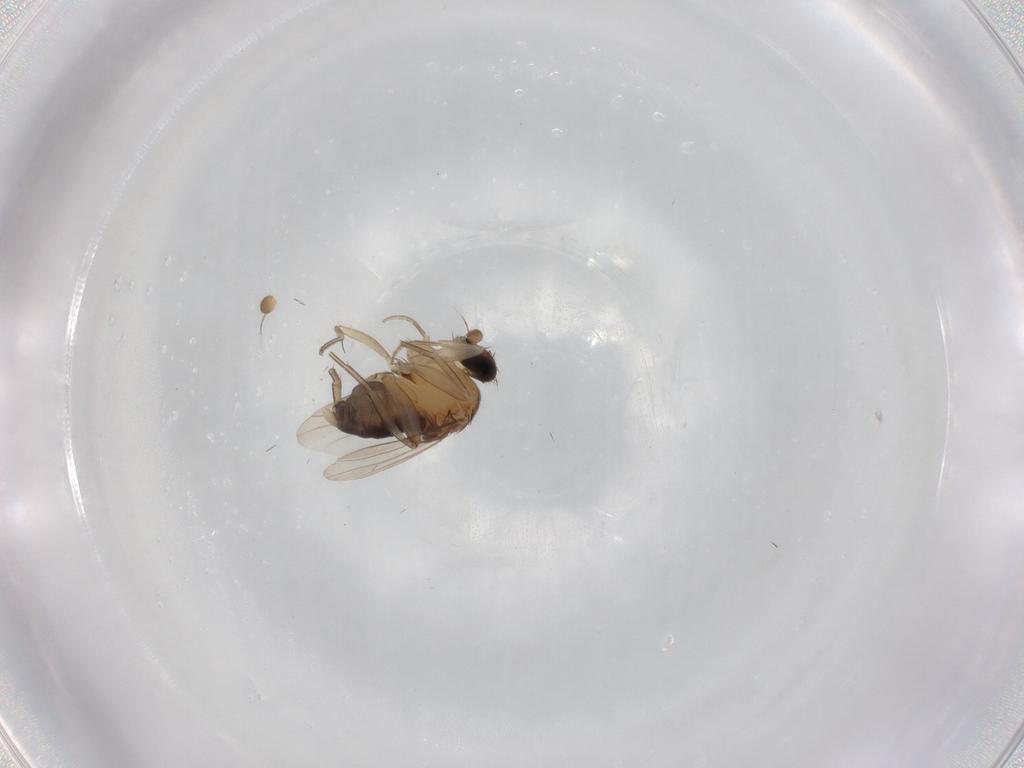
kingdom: Animalia
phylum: Arthropoda
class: Insecta
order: Diptera
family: Phoridae
